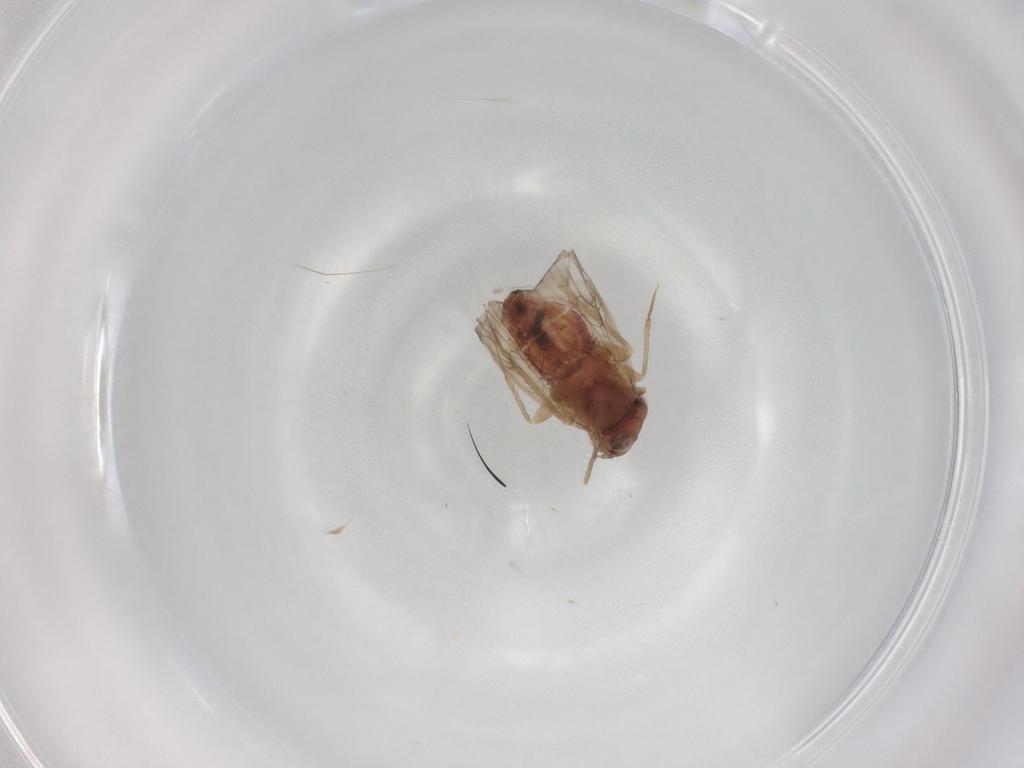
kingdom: Animalia
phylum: Arthropoda
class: Insecta
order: Psocodea
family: Lepidopsocidae
